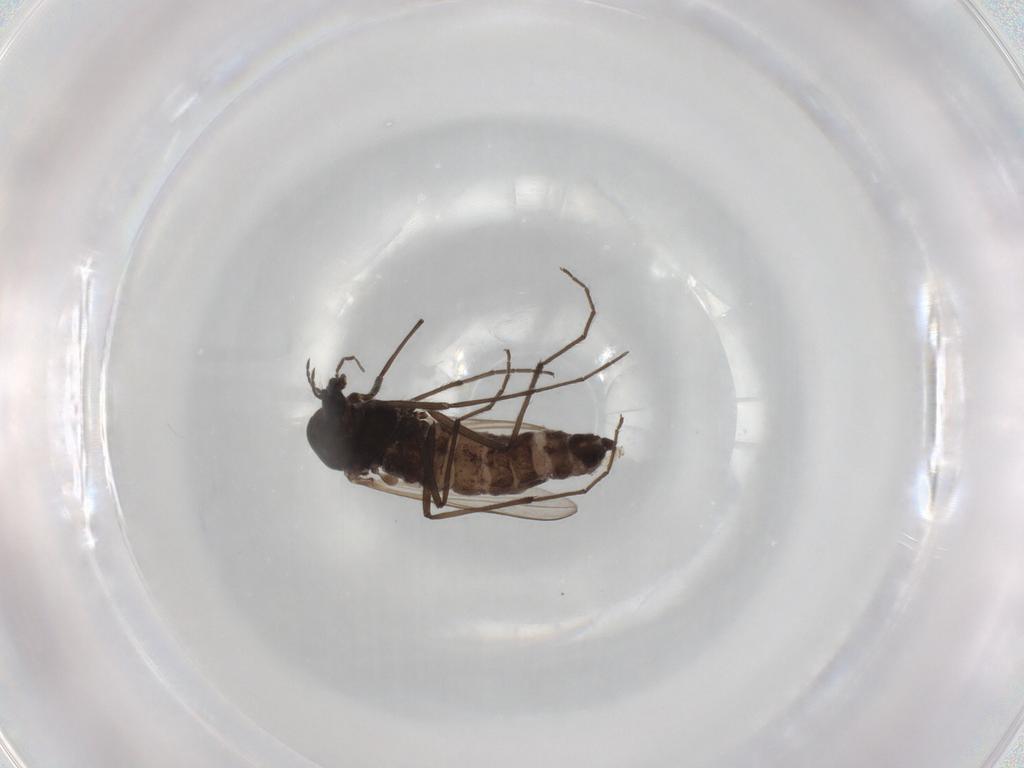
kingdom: Animalia
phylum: Arthropoda
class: Insecta
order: Diptera
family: Chironomidae
